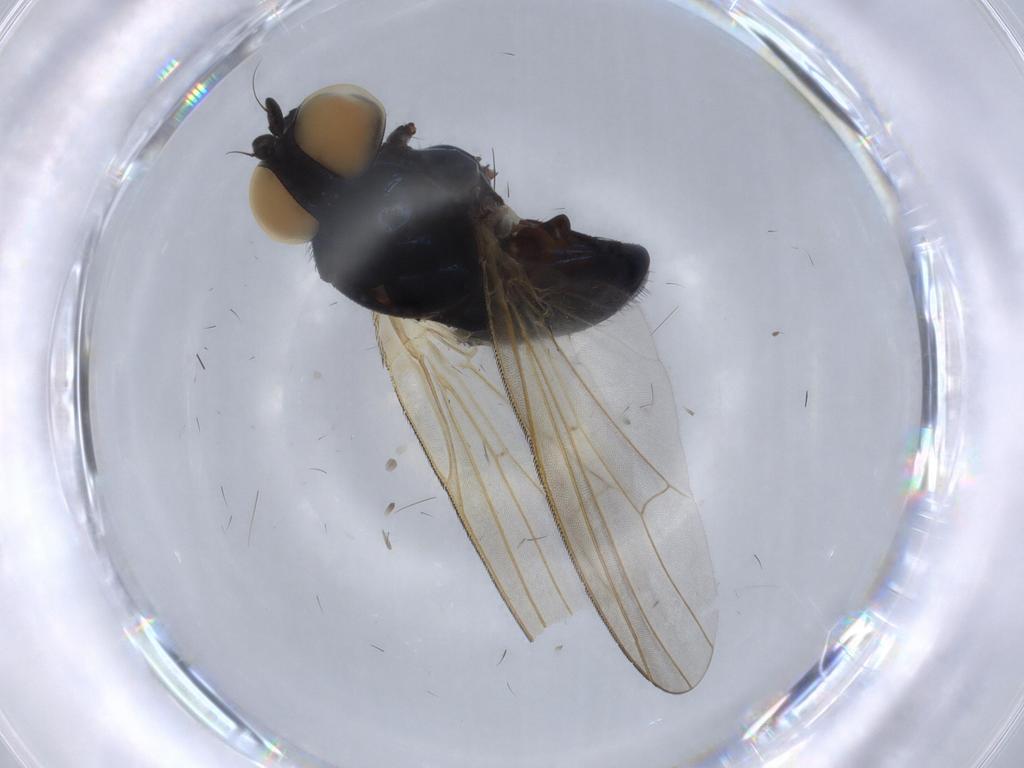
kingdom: Animalia
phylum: Arthropoda
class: Insecta
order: Diptera
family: Lonchaeidae
